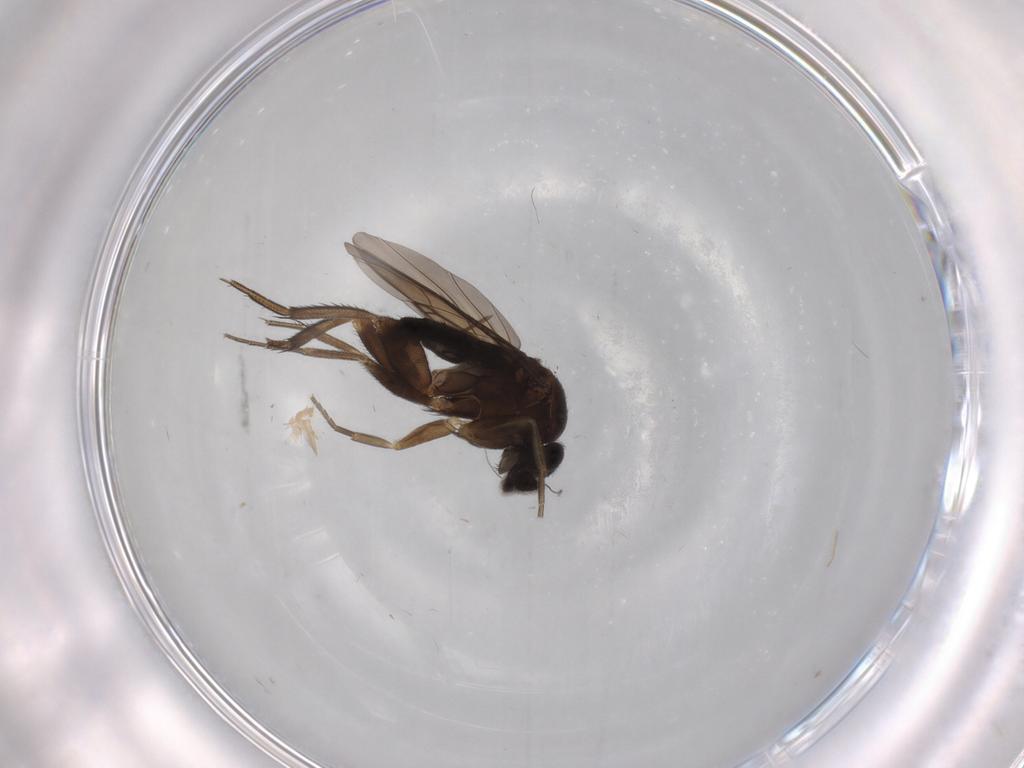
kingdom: Animalia
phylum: Arthropoda
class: Insecta
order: Diptera
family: Phoridae
